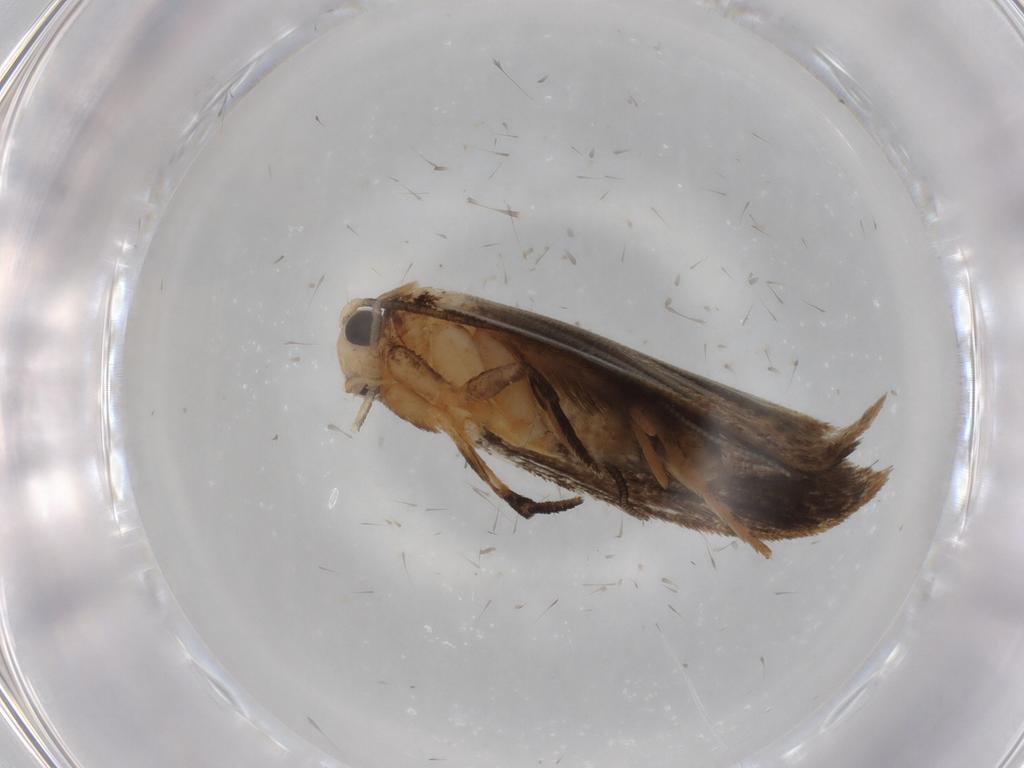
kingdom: Animalia
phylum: Arthropoda
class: Insecta
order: Lepidoptera
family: Tineidae
